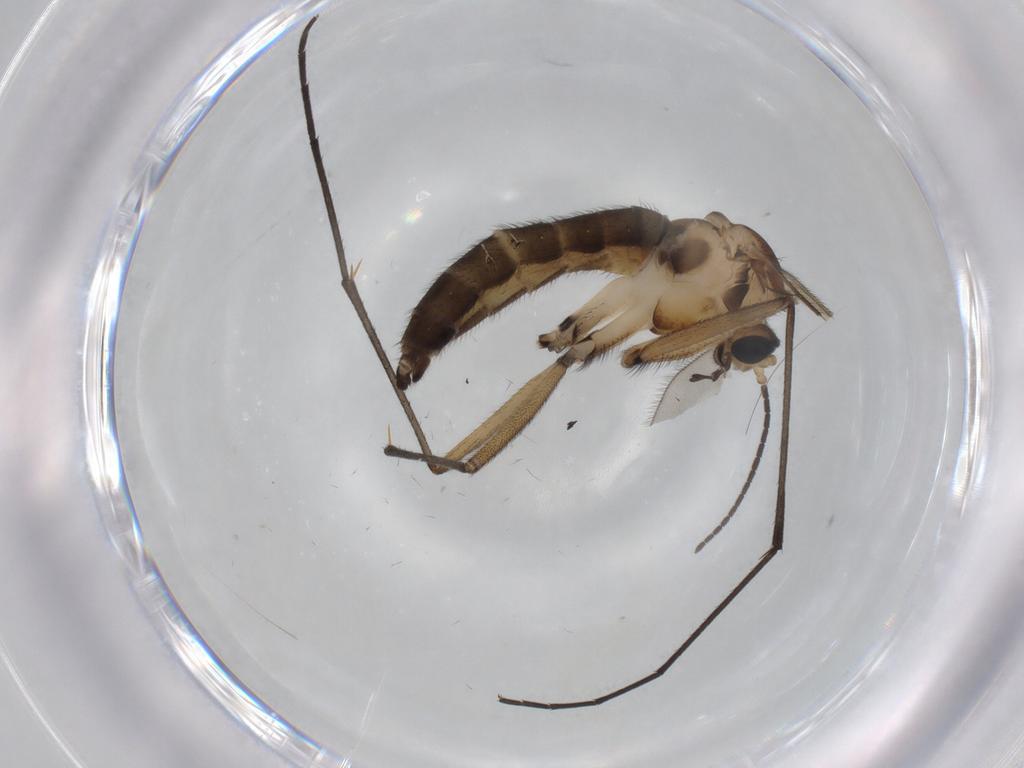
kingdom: Animalia
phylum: Arthropoda
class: Insecta
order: Diptera
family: Sciaridae
